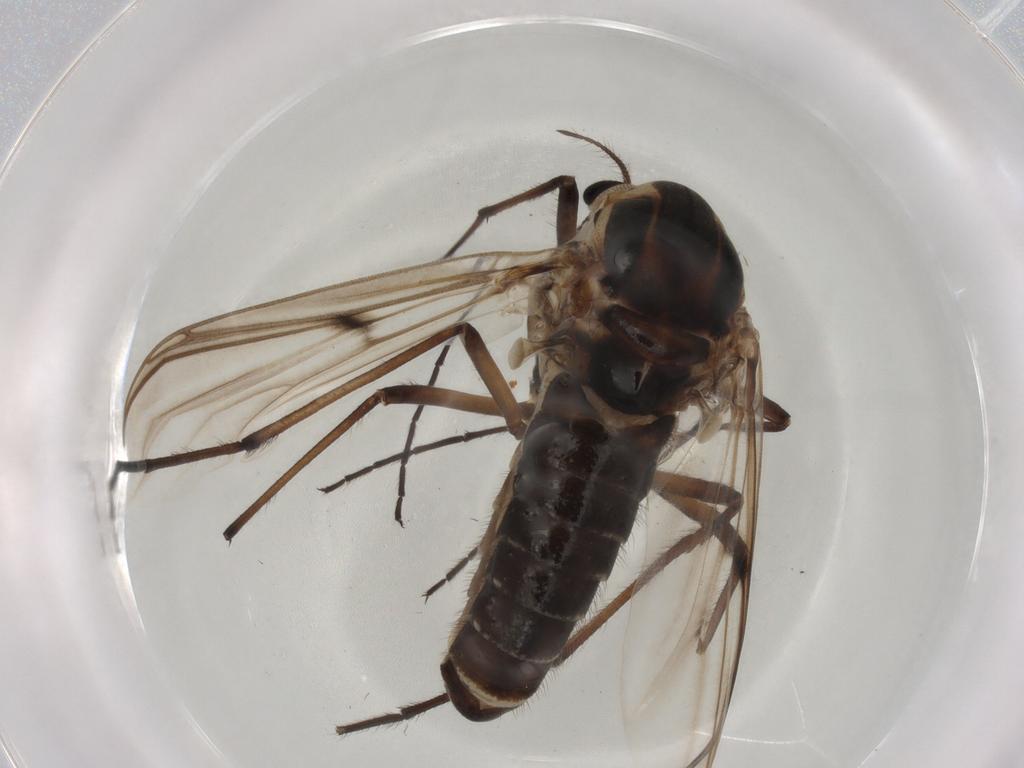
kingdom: Animalia
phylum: Arthropoda
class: Insecta
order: Diptera
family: Chironomidae
